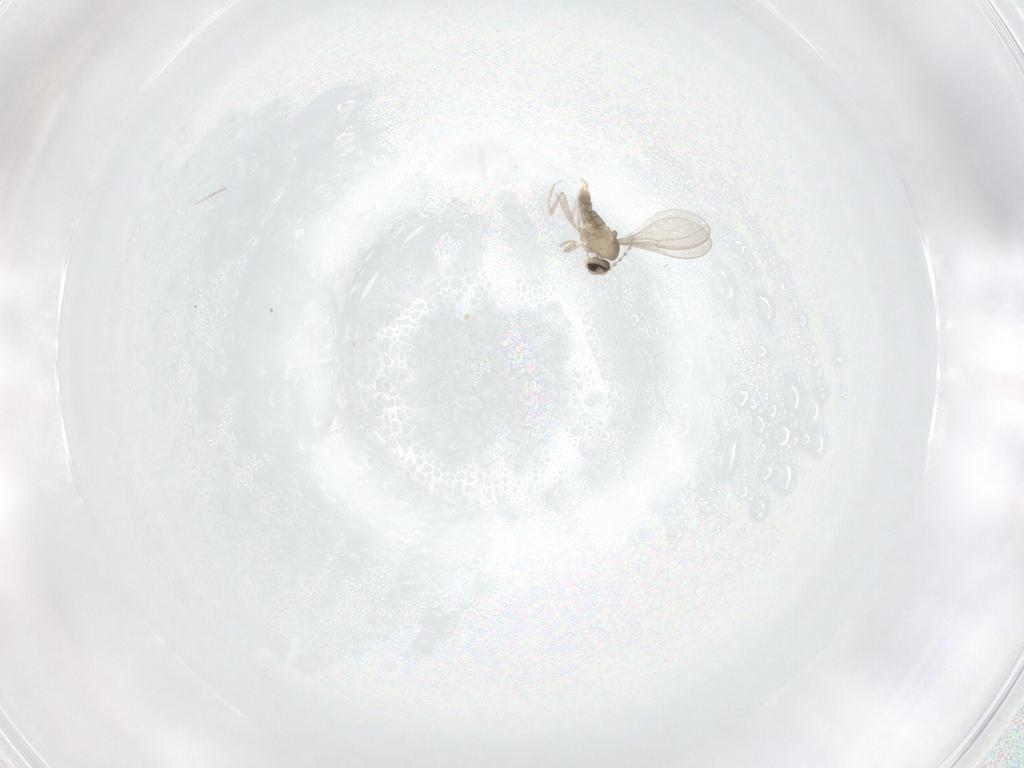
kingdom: Animalia
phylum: Arthropoda
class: Insecta
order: Diptera
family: Cecidomyiidae
